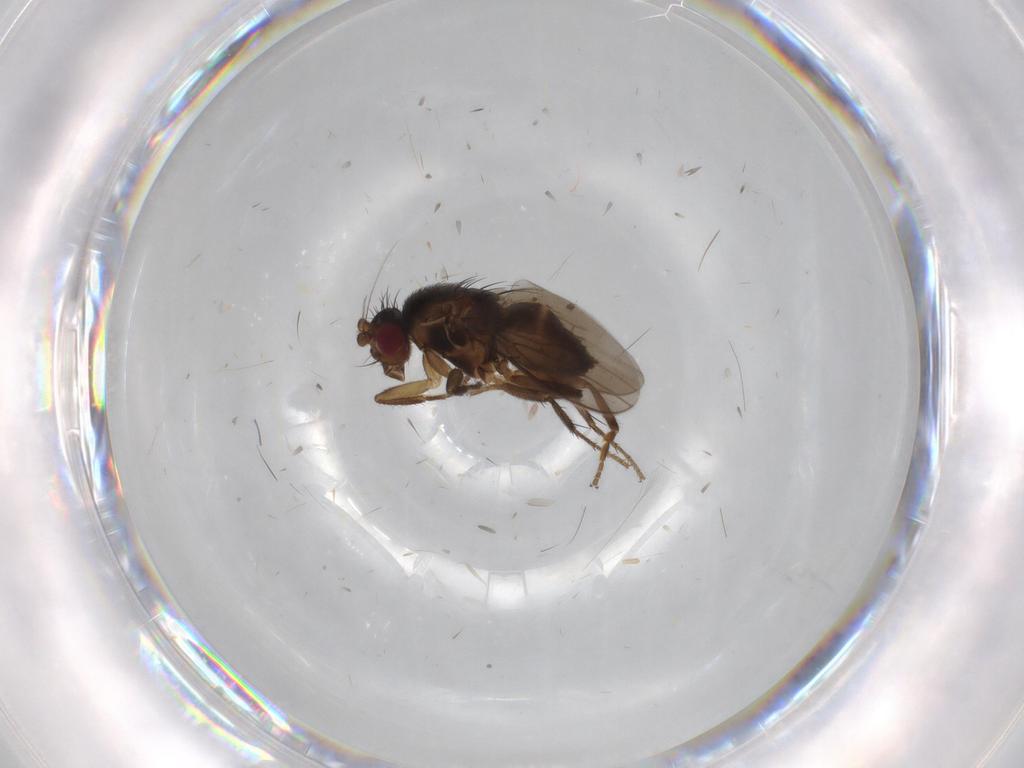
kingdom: Animalia
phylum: Arthropoda
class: Insecta
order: Diptera
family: Cecidomyiidae
